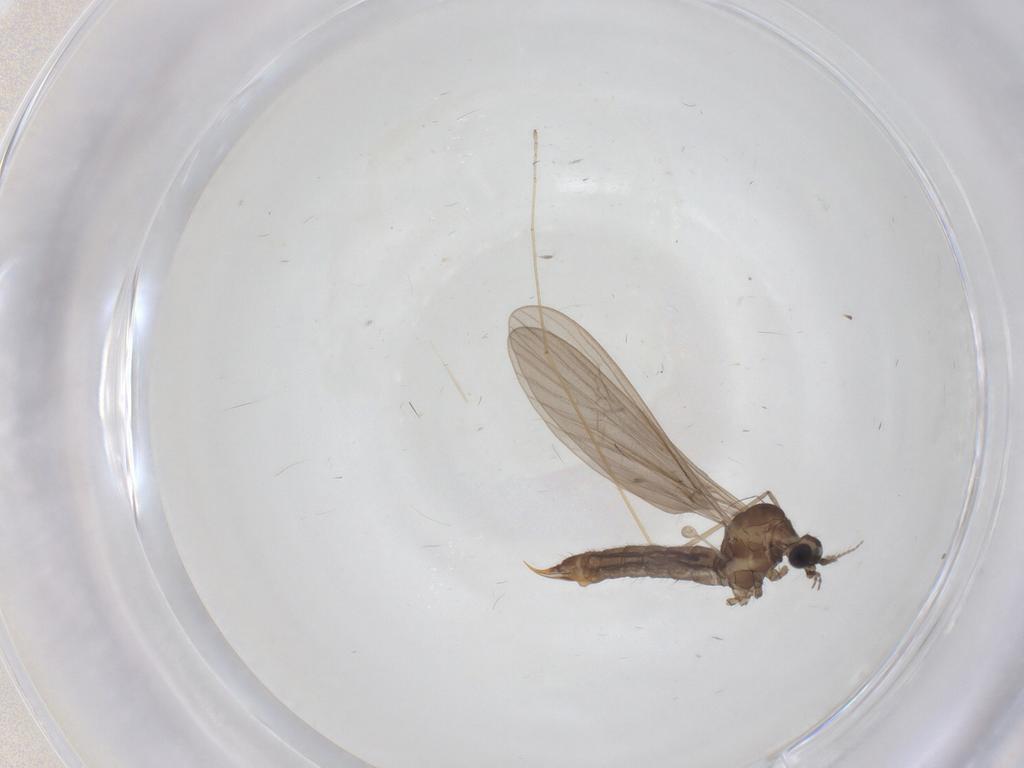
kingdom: Animalia
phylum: Arthropoda
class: Insecta
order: Diptera
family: Limoniidae
